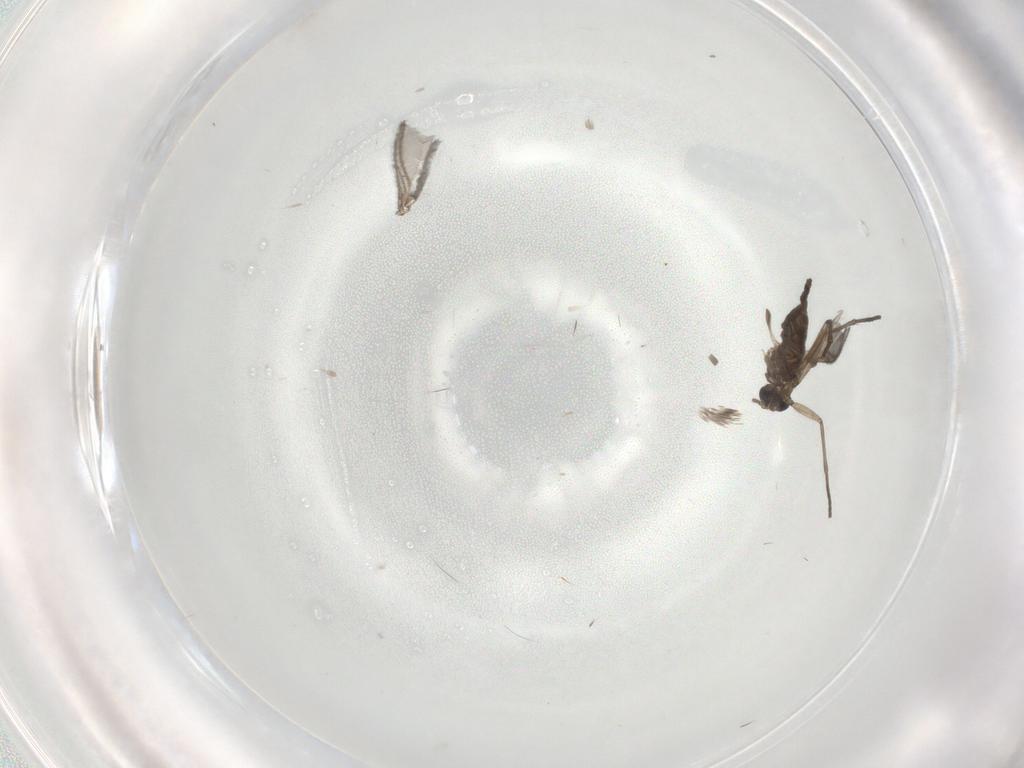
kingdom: Animalia
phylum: Arthropoda
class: Insecta
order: Diptera
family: Sciaridae
